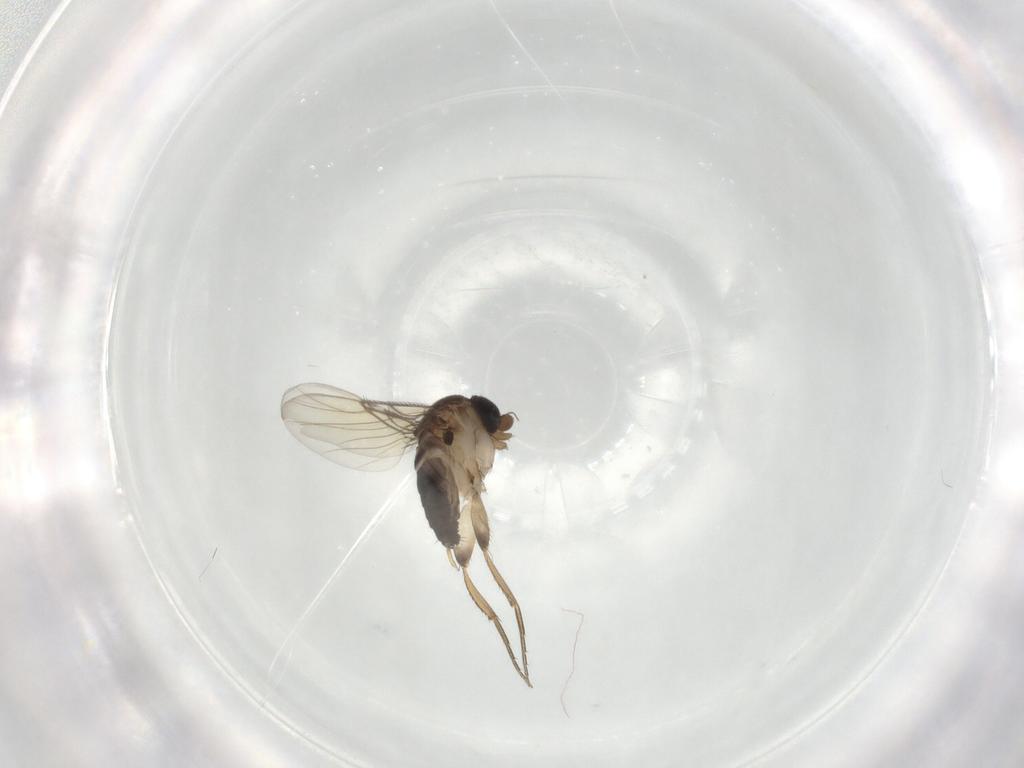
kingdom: Animalia
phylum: Arthropoda
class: Insecta
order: Diptera
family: Phoridae
